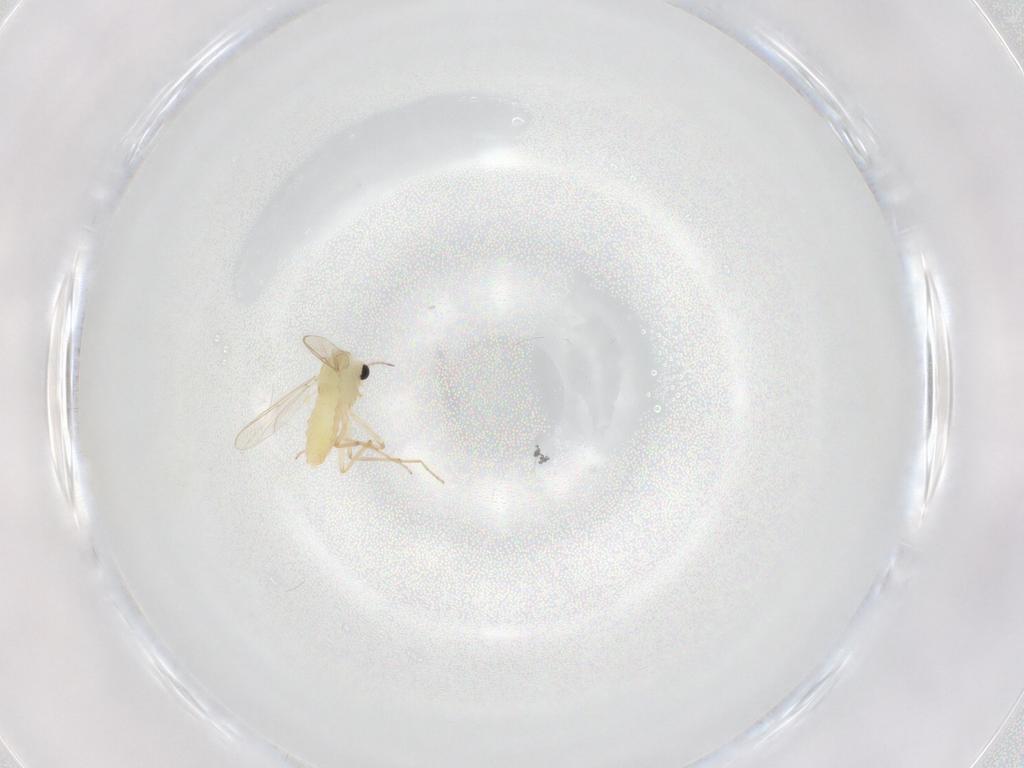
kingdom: Animalia
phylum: Arthropoda
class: Insecta
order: Diptera
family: Chironomidae
